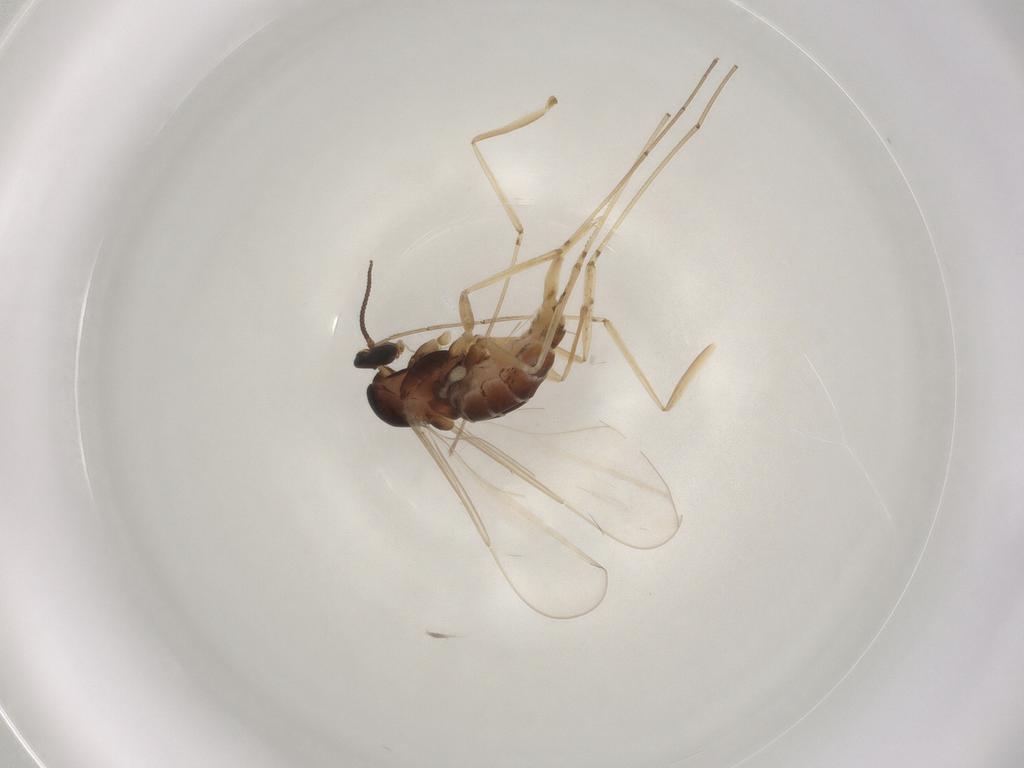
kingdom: Animalia
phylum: Arthropoda
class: Insecta
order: Diptera
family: Cecidomyiidae
